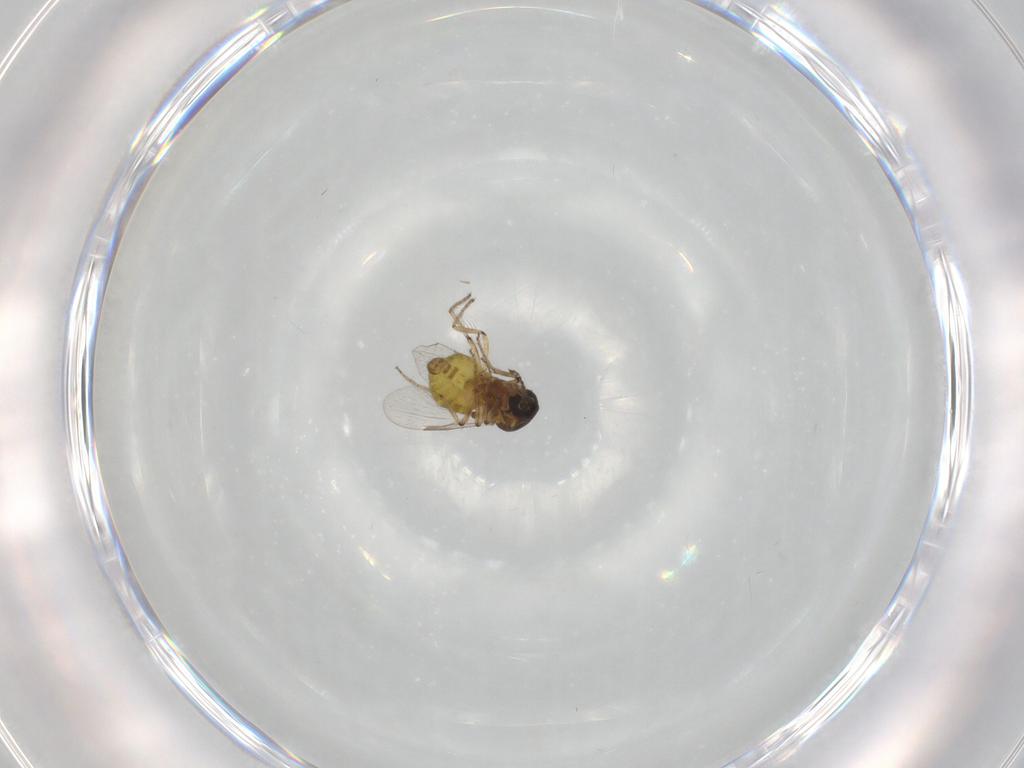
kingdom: Animalia
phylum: Arthropoda
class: Insecta
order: Diptera
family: Ceratopogonidae
